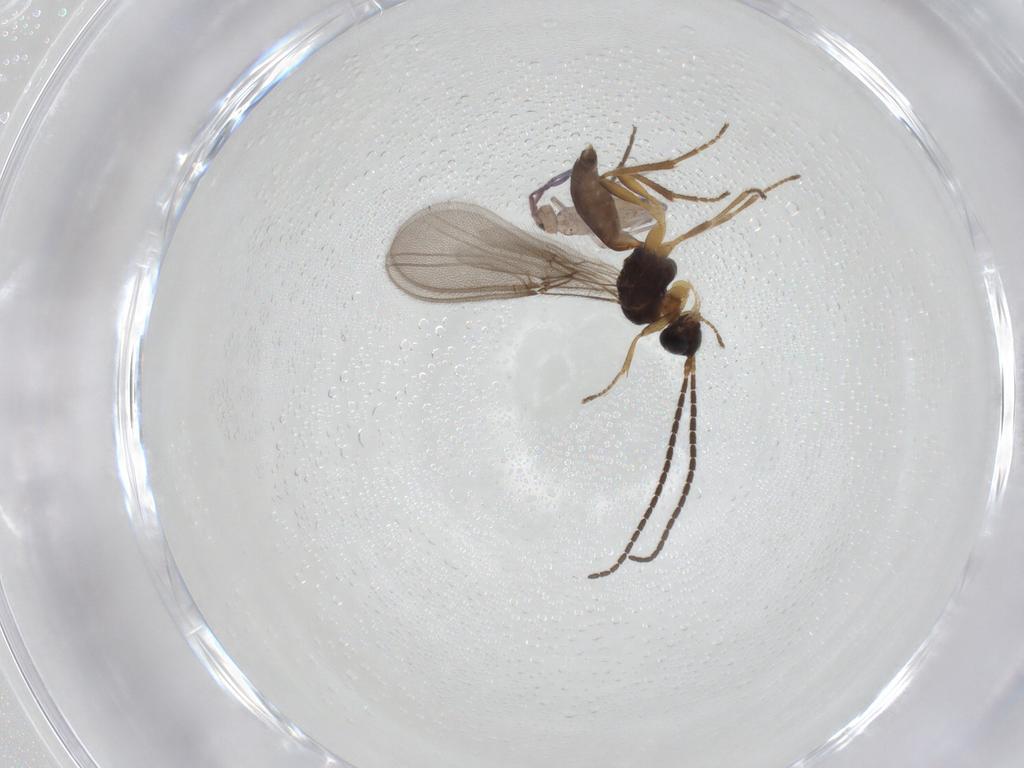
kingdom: Animalia
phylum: Arthropoda
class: Collembola
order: Entomobryomorpha
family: Entomobryidae
